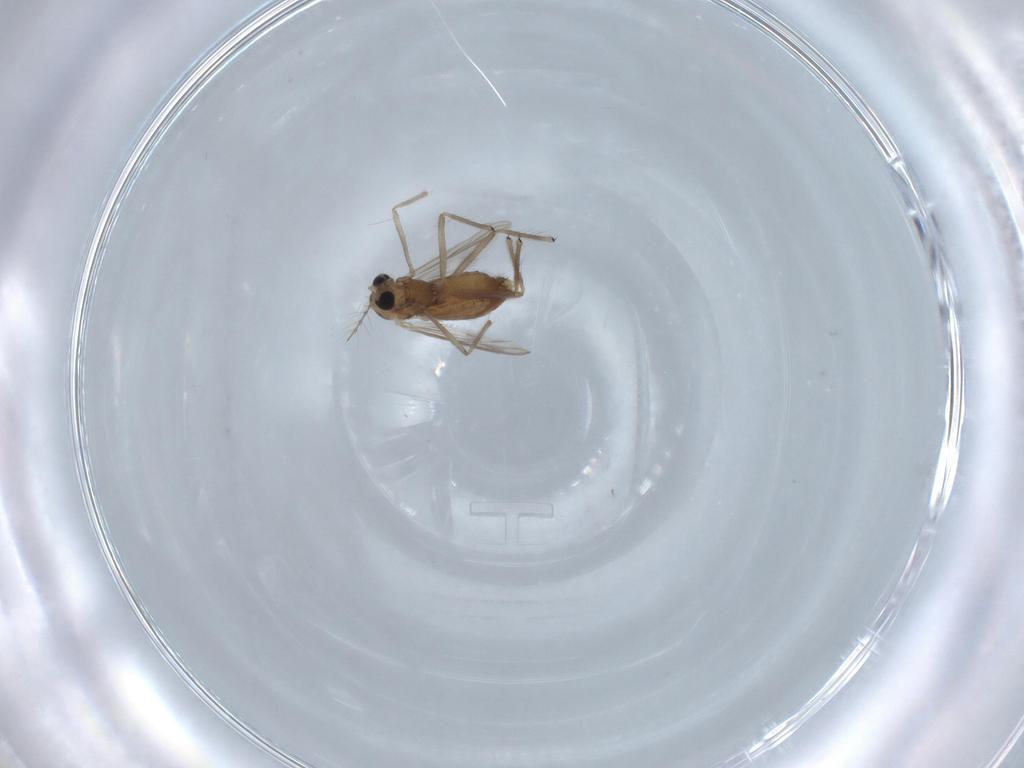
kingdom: Animalia
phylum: Arthropoda
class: Insecta
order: Diptera
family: Chironomidae
